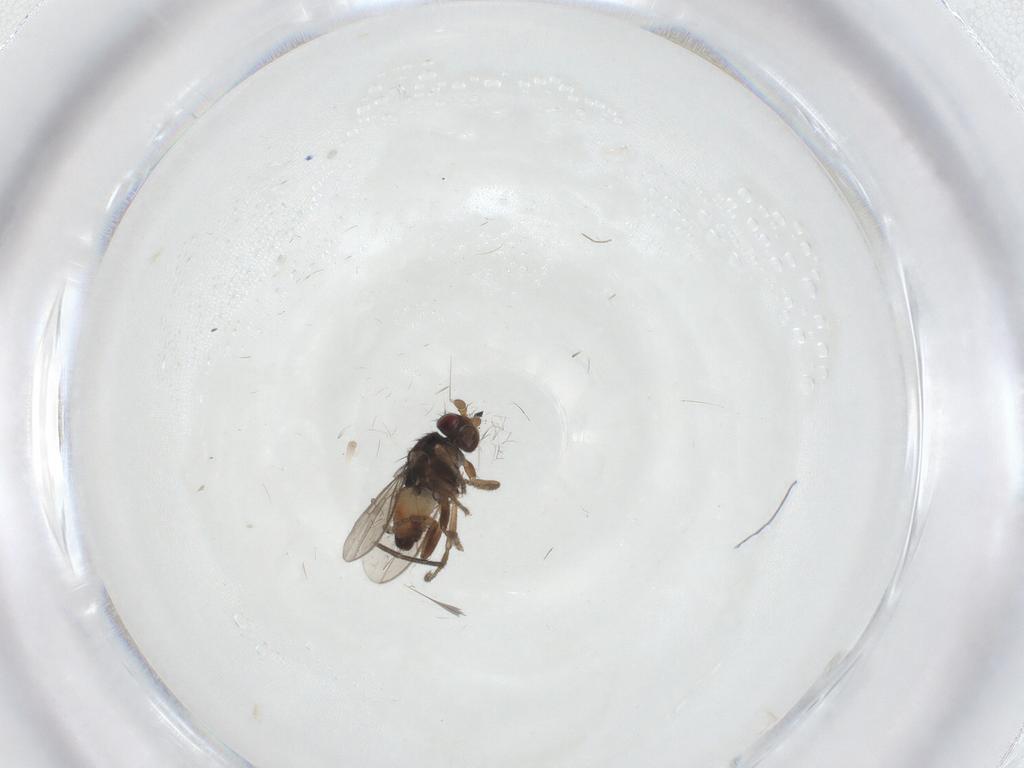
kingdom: Animalia
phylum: Arthropoda
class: Insecta
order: Diptera
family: Sphaeroceridae
